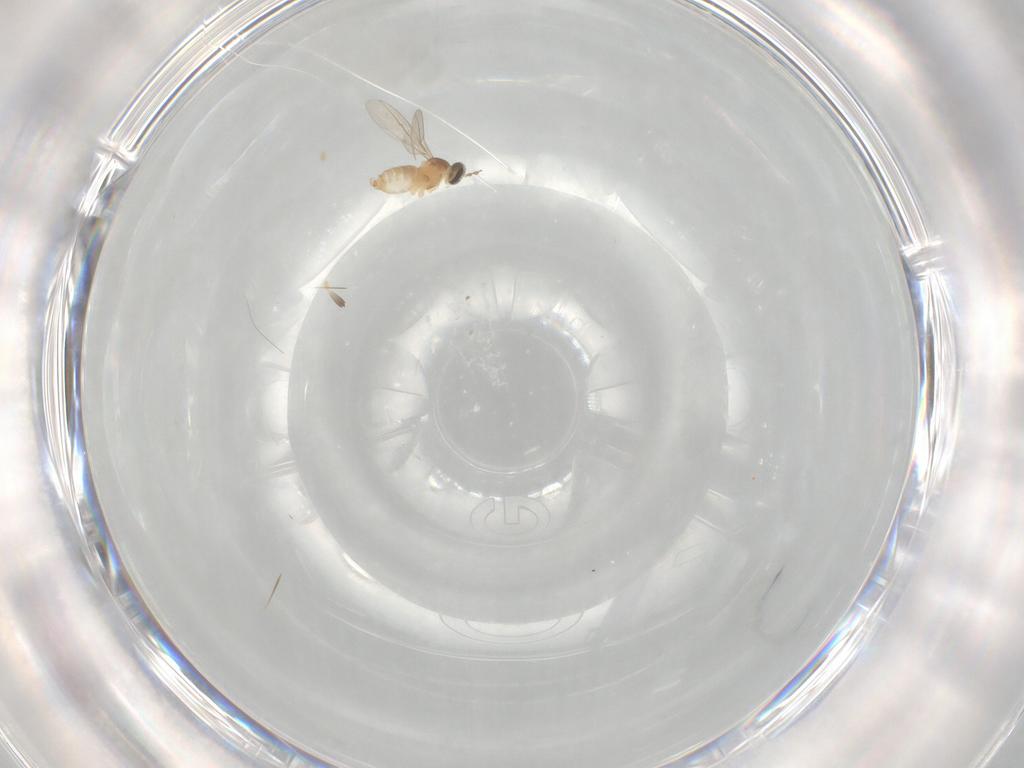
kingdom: Animalia
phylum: Arthropoda
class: Insecta
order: Diptera
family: Cecidomyiidae
